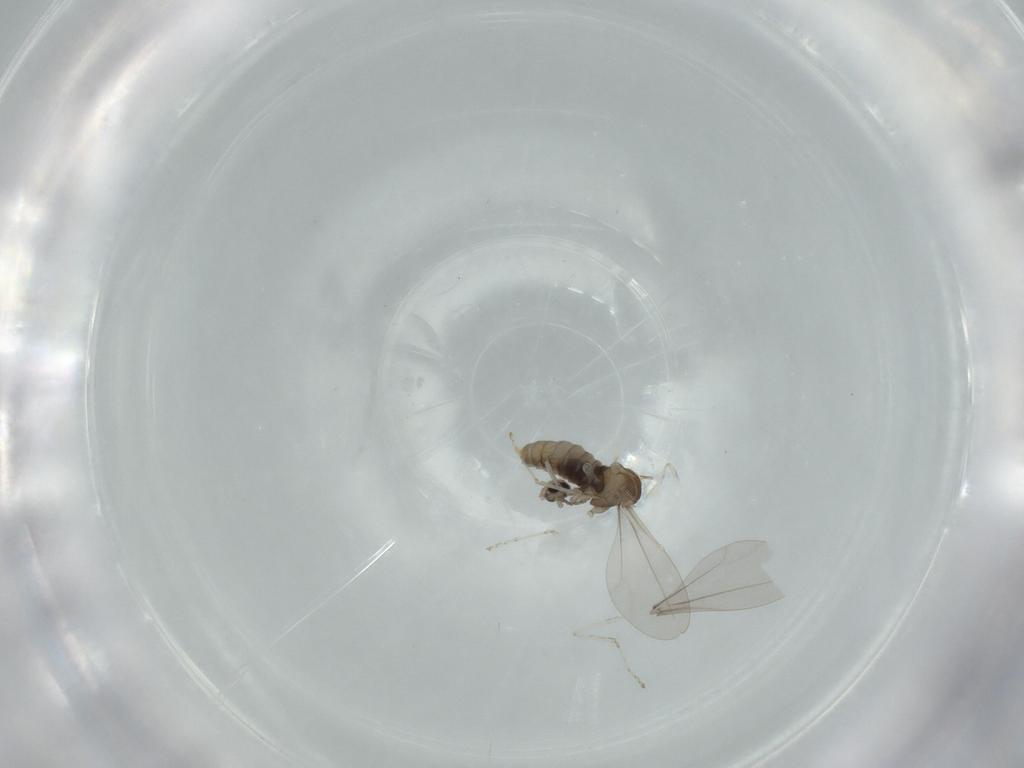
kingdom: Animalia
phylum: Arthropoda
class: Insecta
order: Diptera
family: Cecidomyiidae
